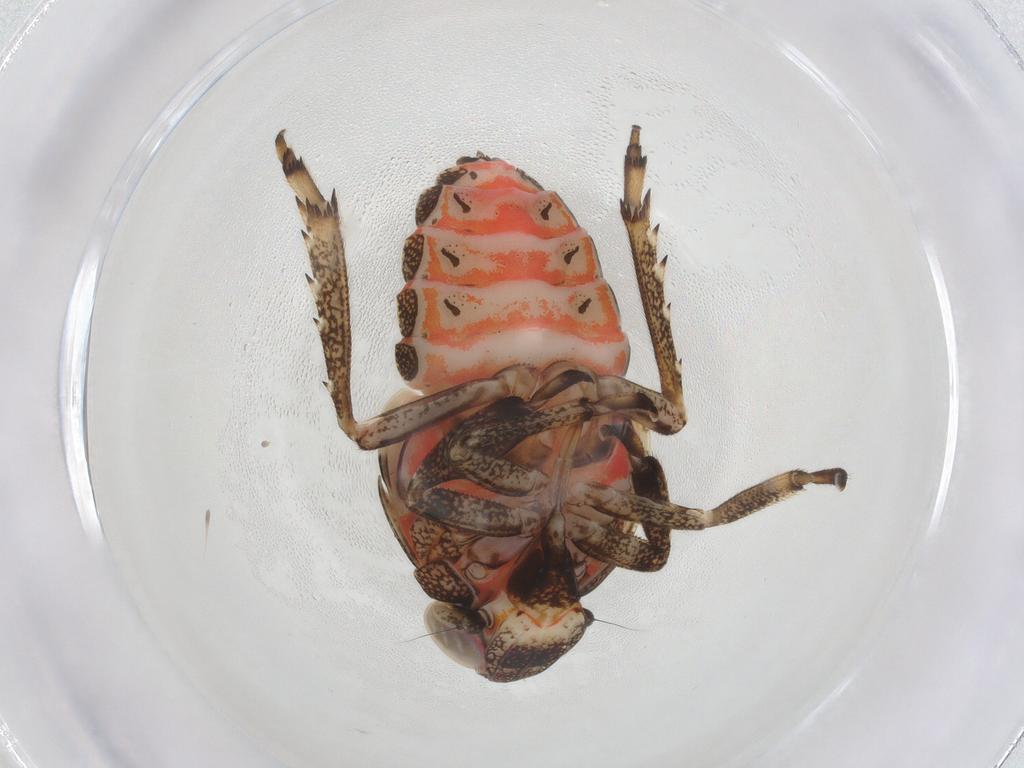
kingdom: Animalia
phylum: Arthropoda
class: Insecta
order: Hemiptera
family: Issidae
